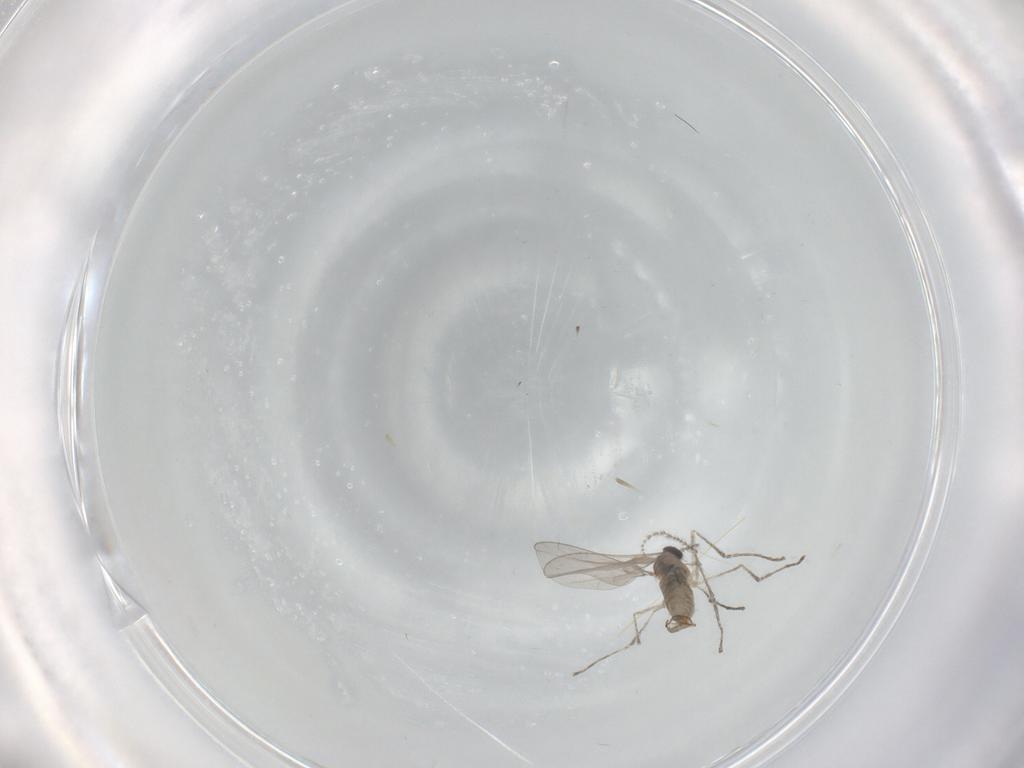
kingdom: Animalia
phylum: Arthropoda
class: Insecta
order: Diptera
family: Cecidomyiidae
